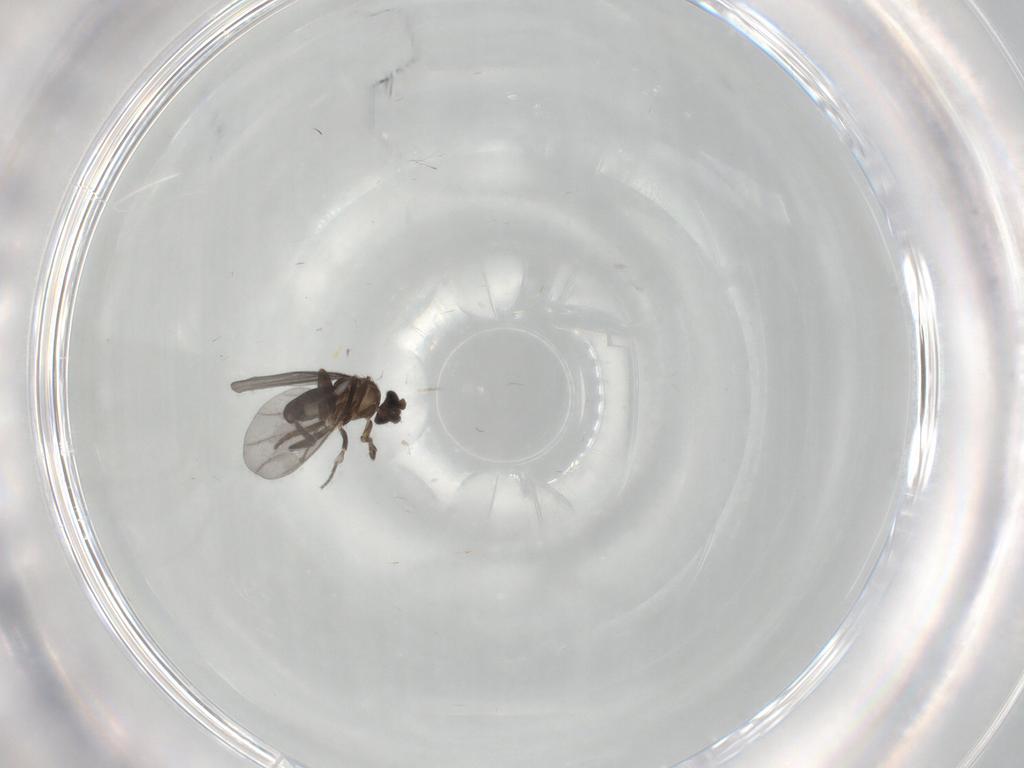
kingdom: Animalia
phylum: Arthropoda
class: Insecta
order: Diptera
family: Phoridae
